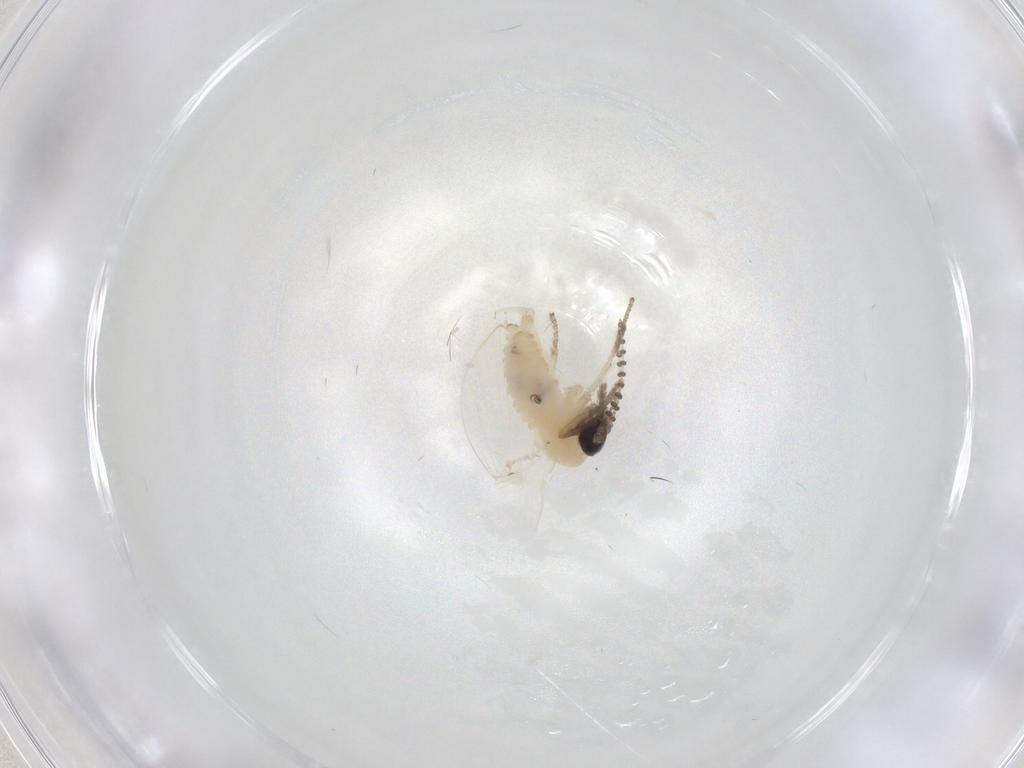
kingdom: Animalia
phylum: Arthropoda
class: Insecta
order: Diptera
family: Psychodidae
